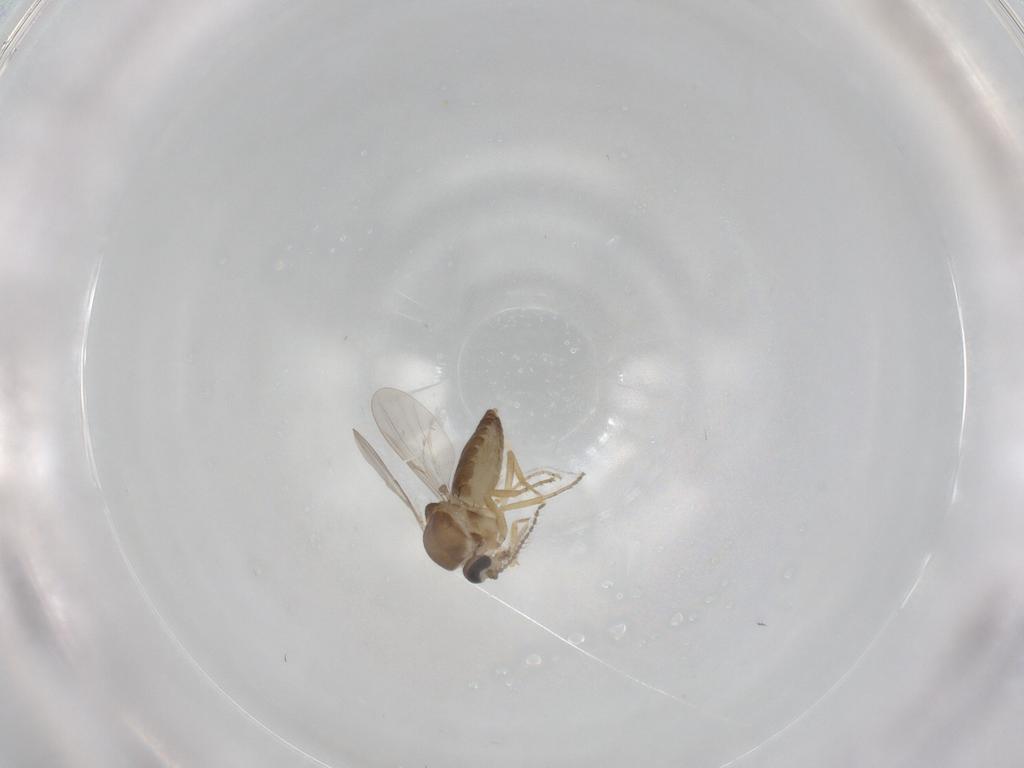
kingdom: Animalia
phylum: Arthropoda
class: Insecta
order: Diptera
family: Ceratopogonidae
